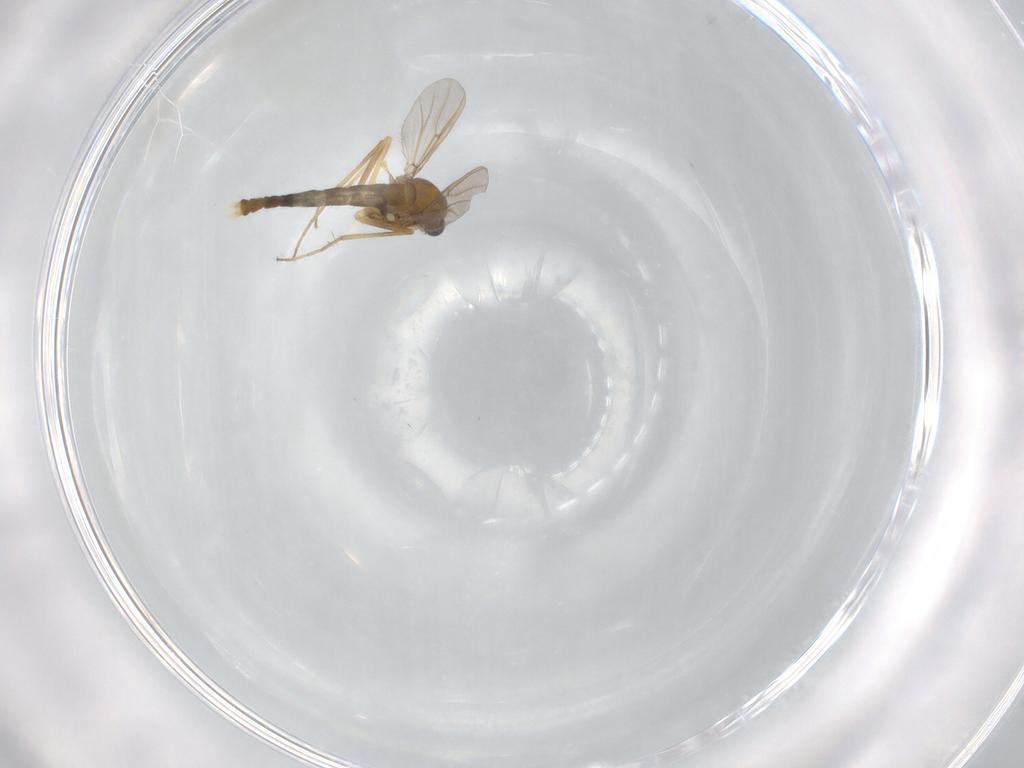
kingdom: Animalia
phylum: Arthropoda
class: Insecta
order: Diptera
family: Chironomidae
